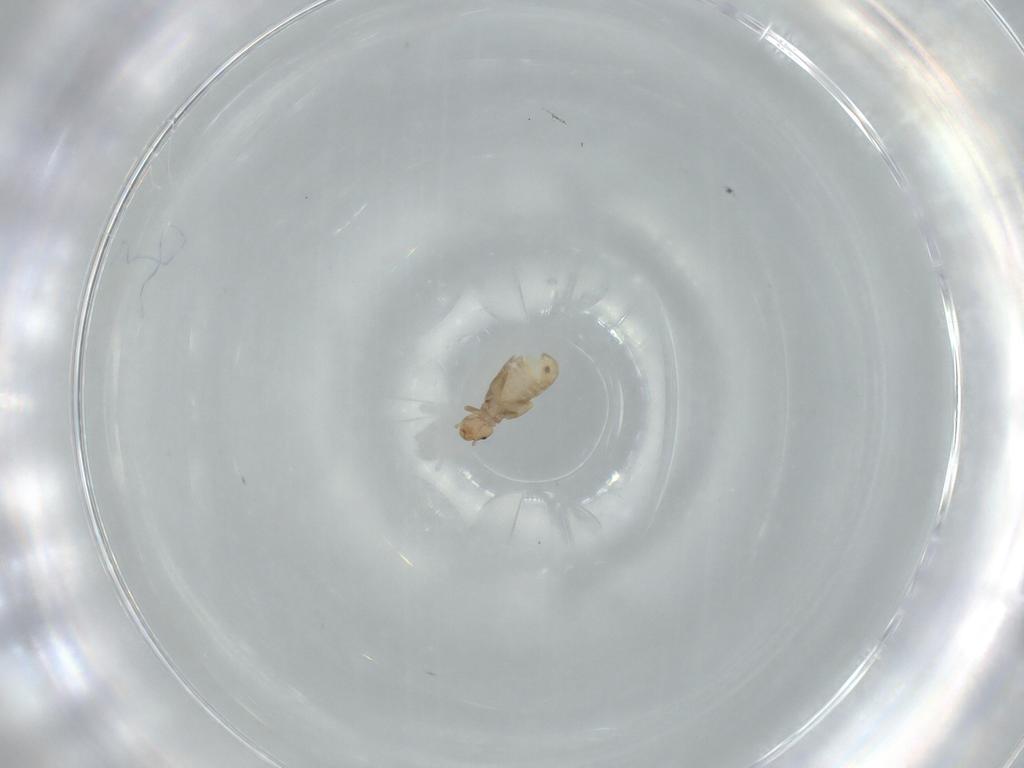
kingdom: Animalia
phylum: Arthropoda
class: Insecta
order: Psocodea
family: Liposcelididae
